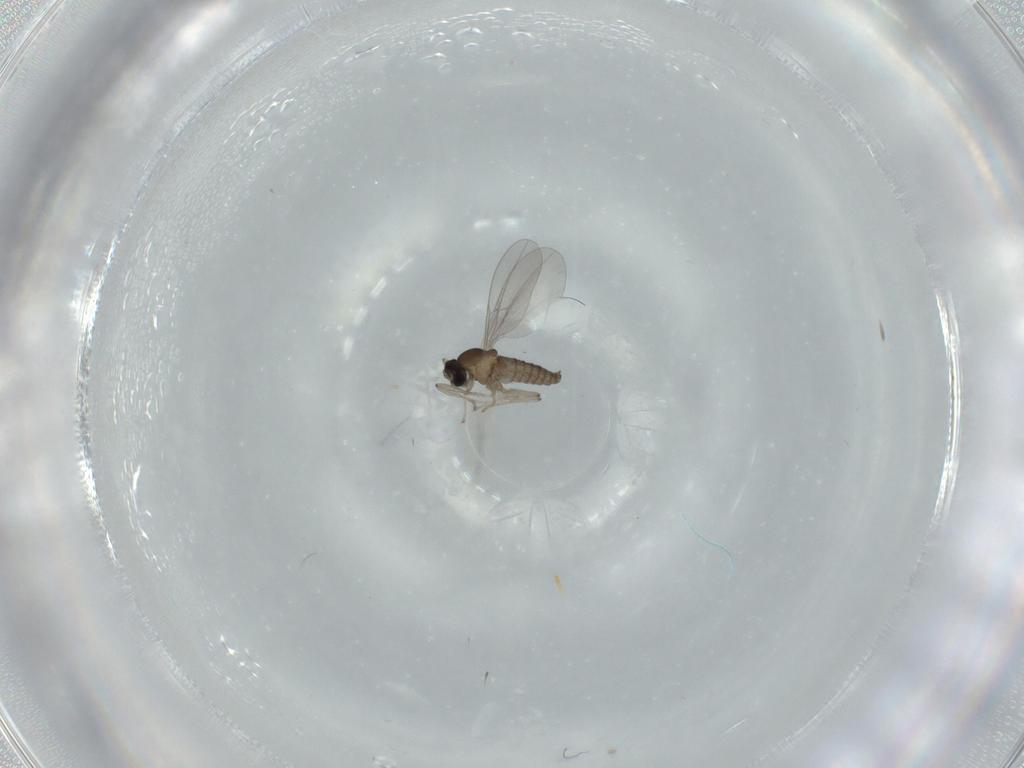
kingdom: Animalia
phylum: Arthropoda
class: Insecta
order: Diptera
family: Cecidomyiidae
